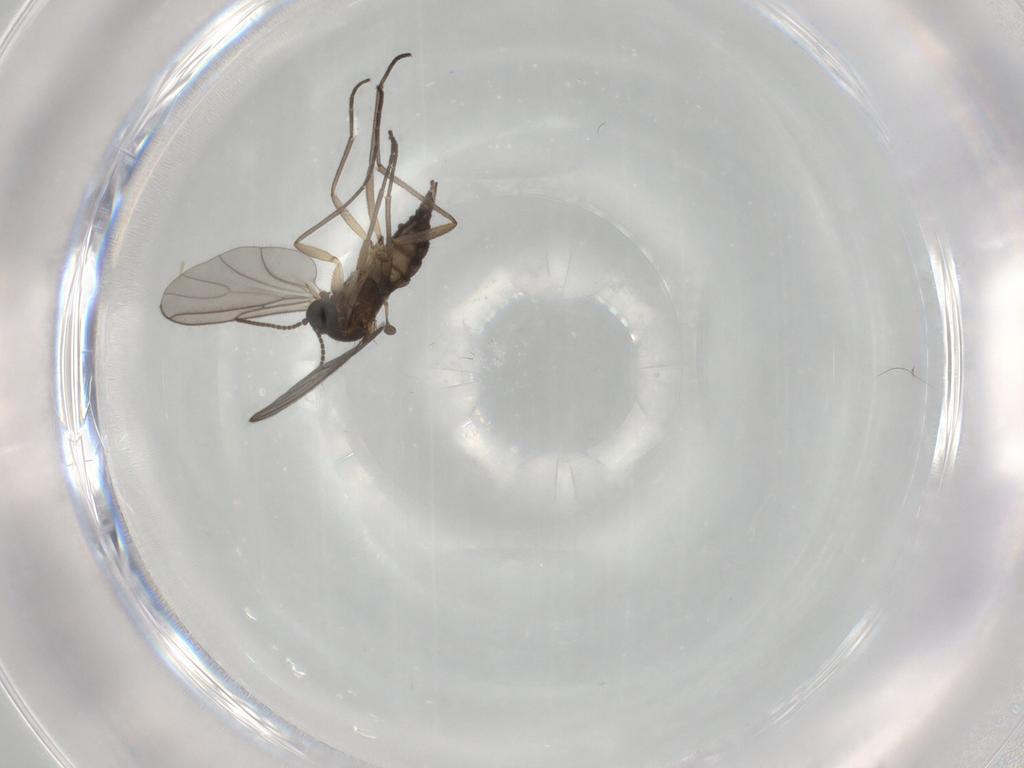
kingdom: Animalia
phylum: Arthropoda
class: Insecta
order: Diptera
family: Sciaridae
